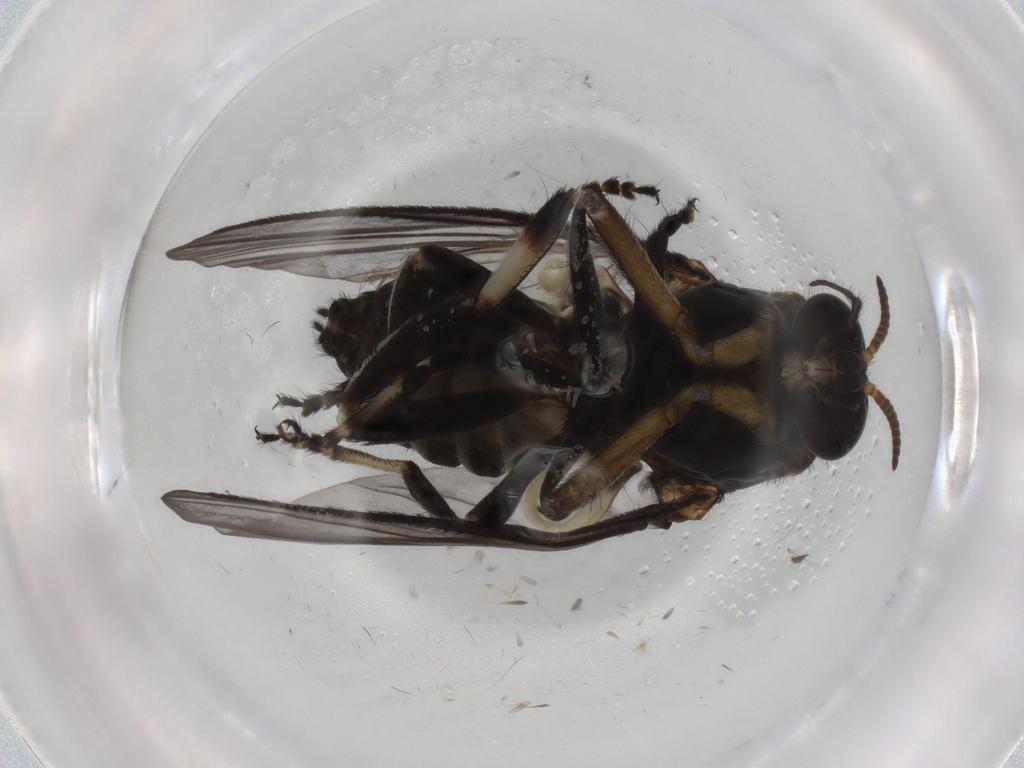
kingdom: Animalia
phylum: Arthropoda
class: Insecta
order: Diptera
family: Simuliidae
